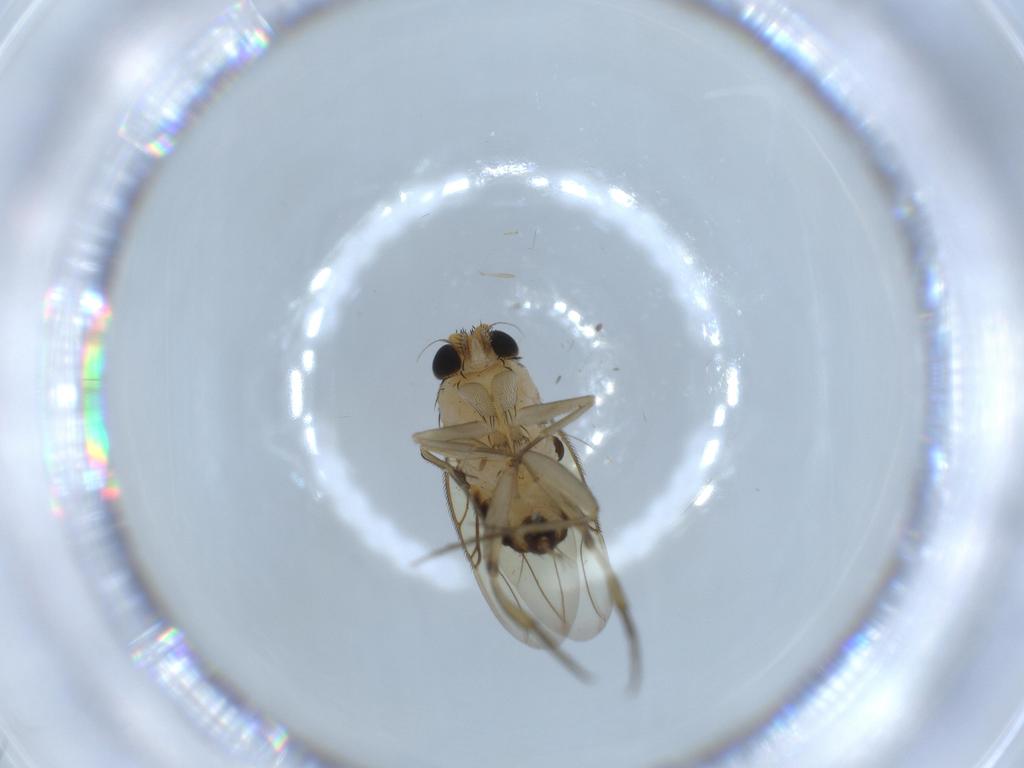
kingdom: Animalia
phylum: Arthropoda
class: Insecta
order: Diptera
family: Phoridae
